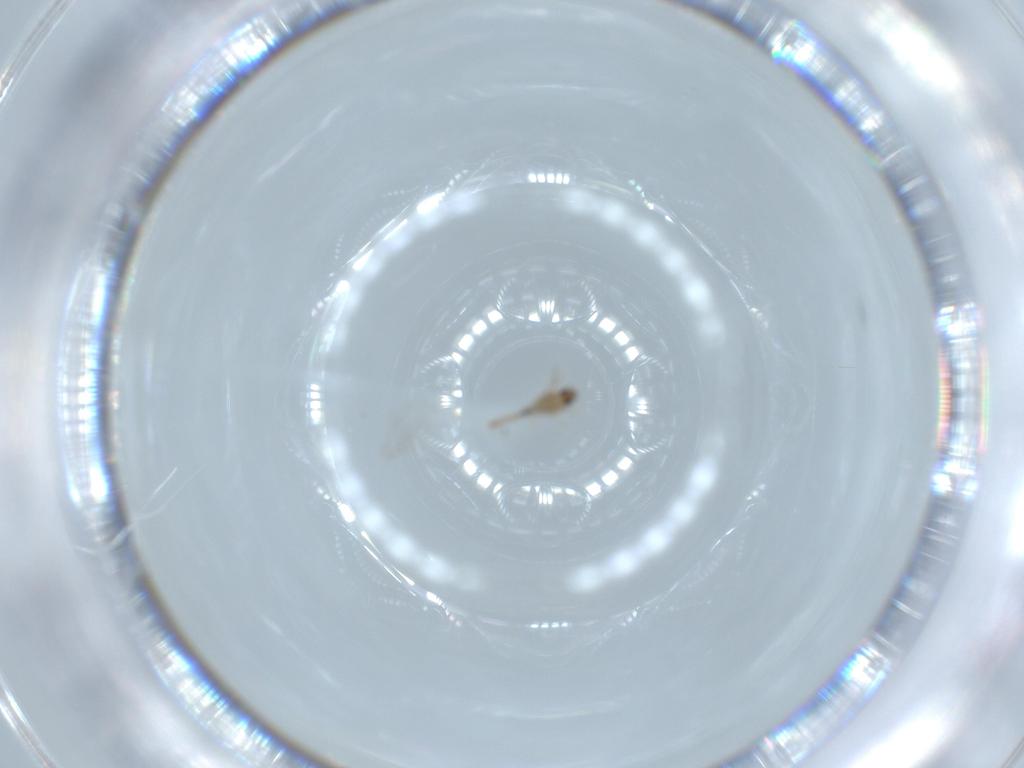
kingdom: Animalia
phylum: Arthropoda
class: Insecta
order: Diptera
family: Cecidomyiidae
